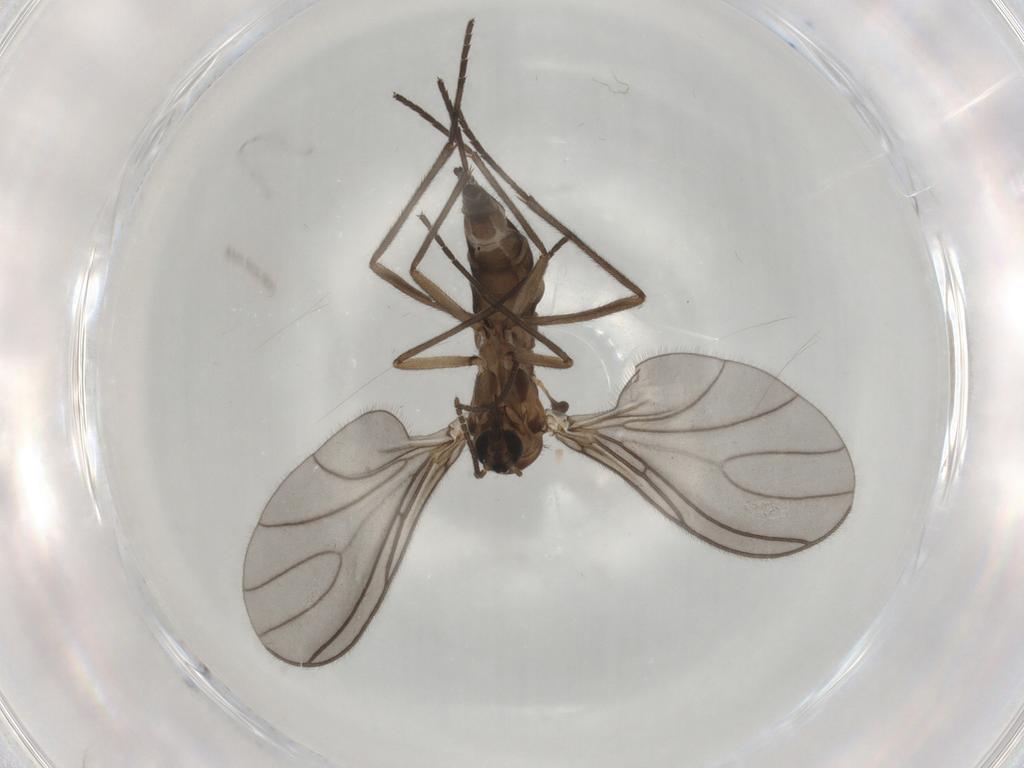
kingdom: Animalia
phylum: Arthropoda
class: Insecta
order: Diptera
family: Sciaridae
